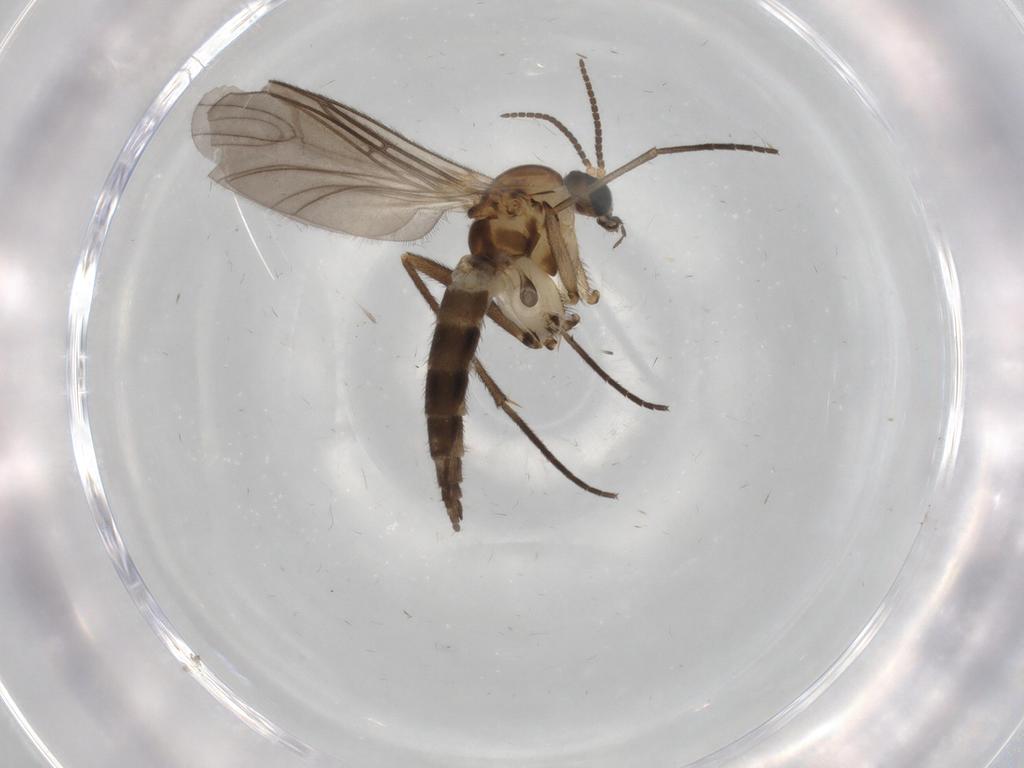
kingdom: Animalia
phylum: Arthropoda
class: Insecta
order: Diptera
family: Sciaridae
